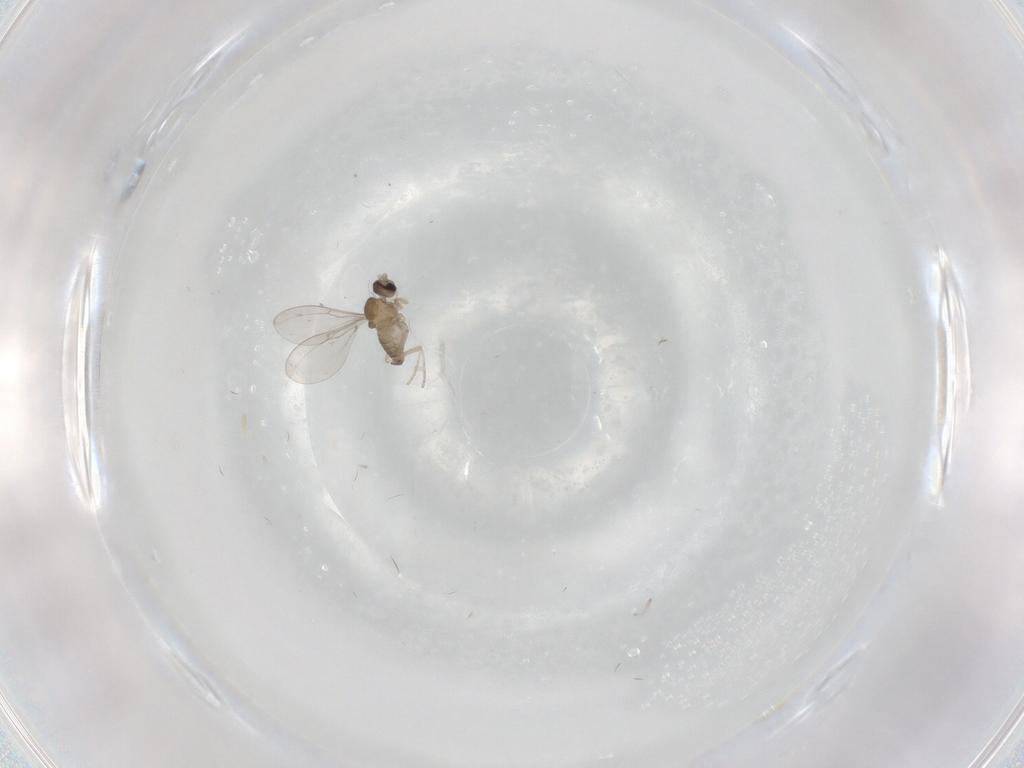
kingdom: Animalia
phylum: Arthropoda
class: Insecta
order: Diptera
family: Cecidomyiidae
